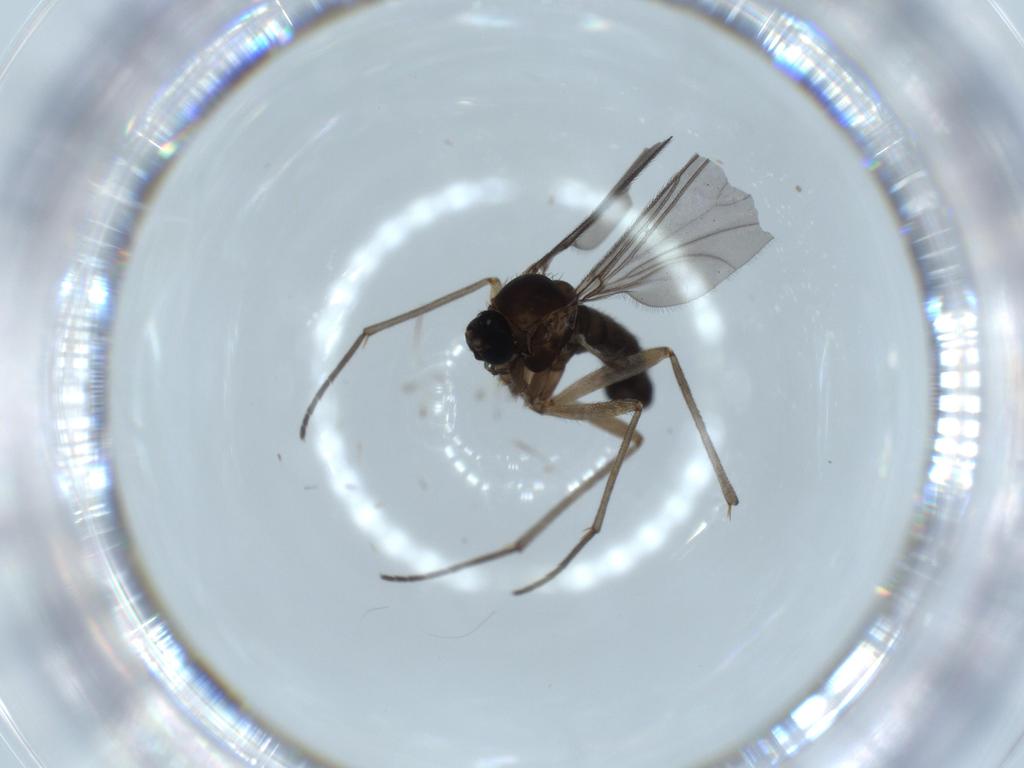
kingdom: Animalia
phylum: Arthropoda
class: Insecta
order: Diptera
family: Sciaridae
